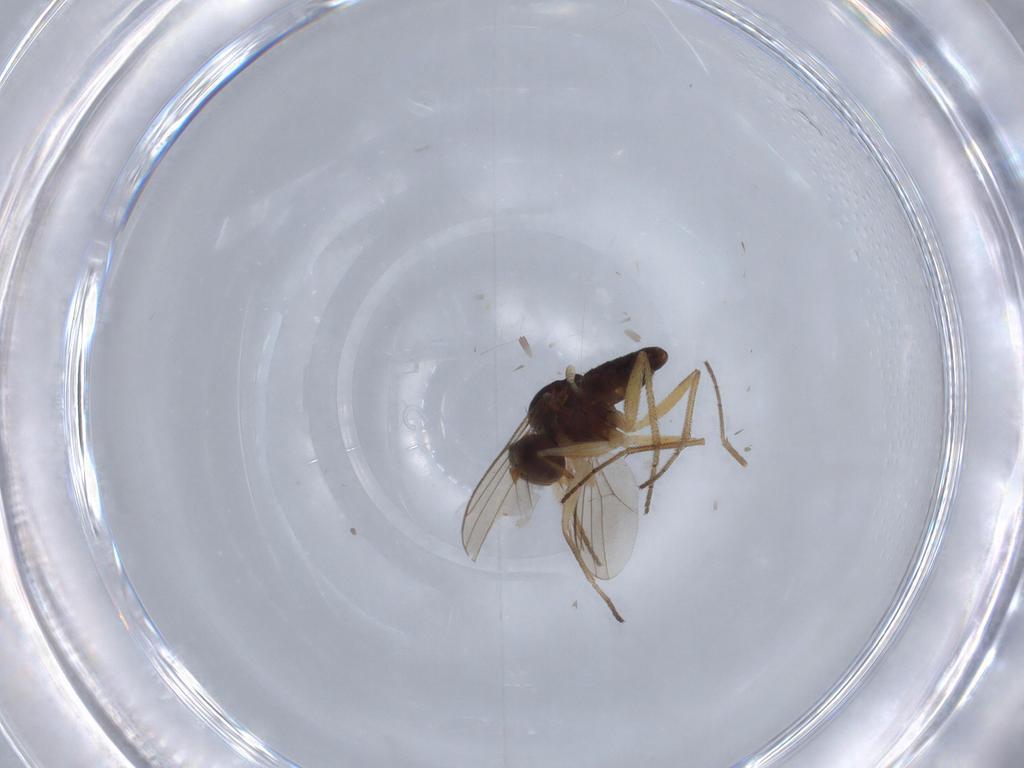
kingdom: Animalia
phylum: Arthropoda
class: Insecta
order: Diptera
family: Dolichopodidae
